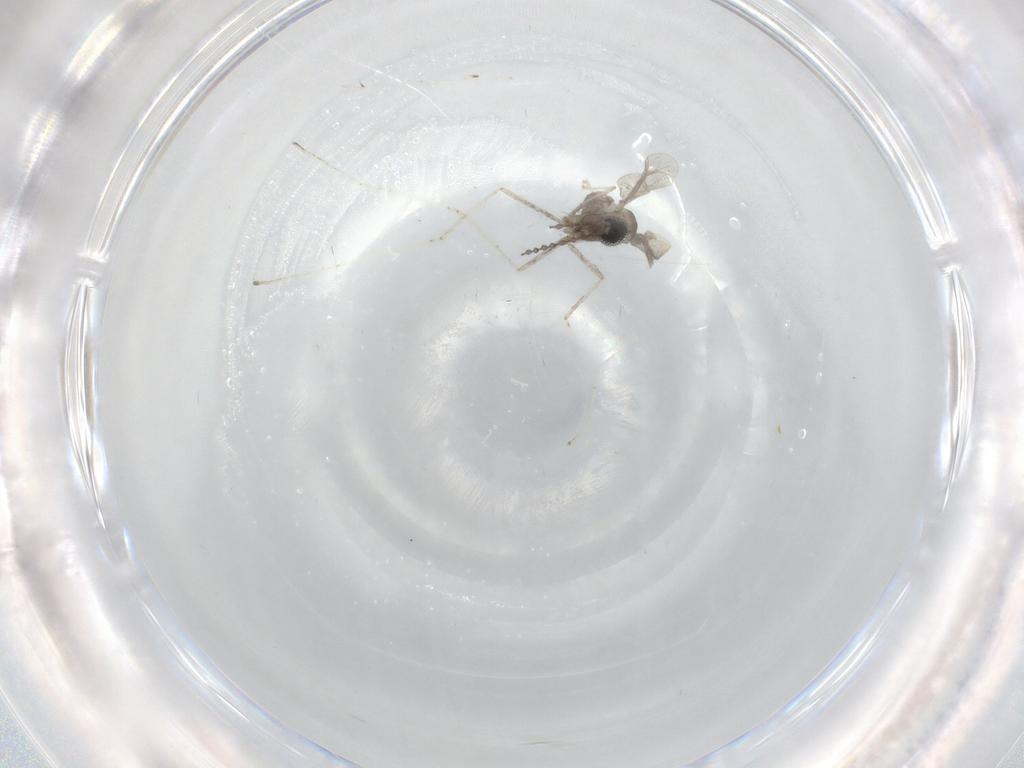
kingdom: Animalia
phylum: Arthropoda
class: Insecta
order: Diptera
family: Cecidomyiidae
